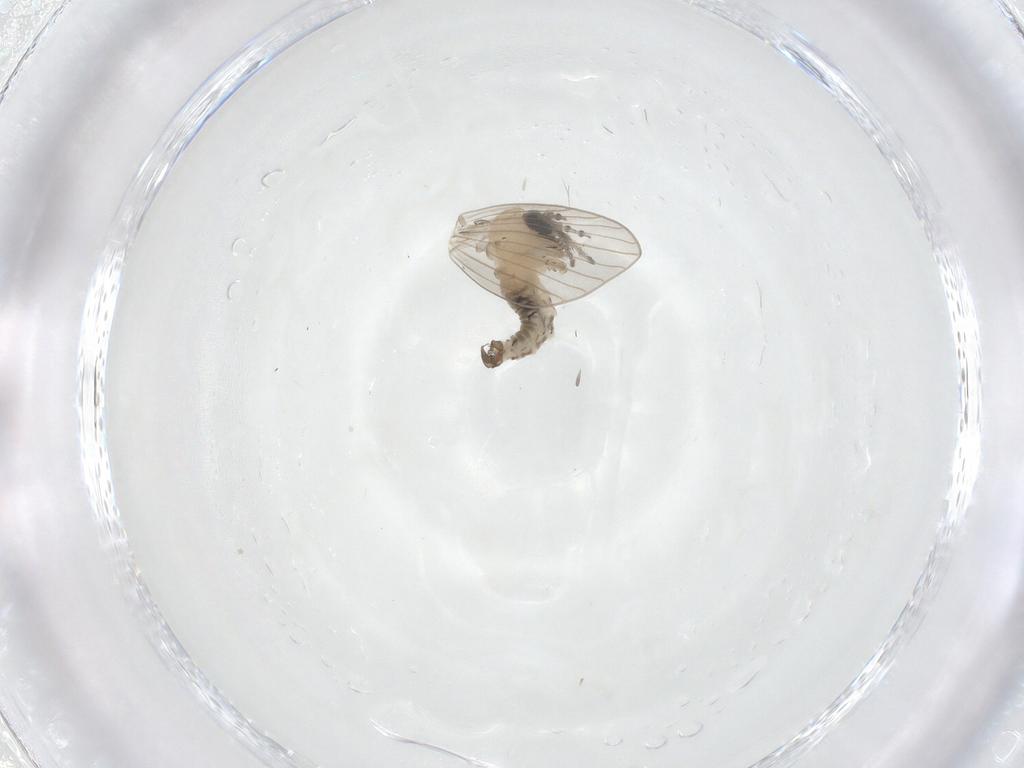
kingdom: Animalia
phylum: Arthropoda
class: Insecta
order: Diptera
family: Psychodidae
